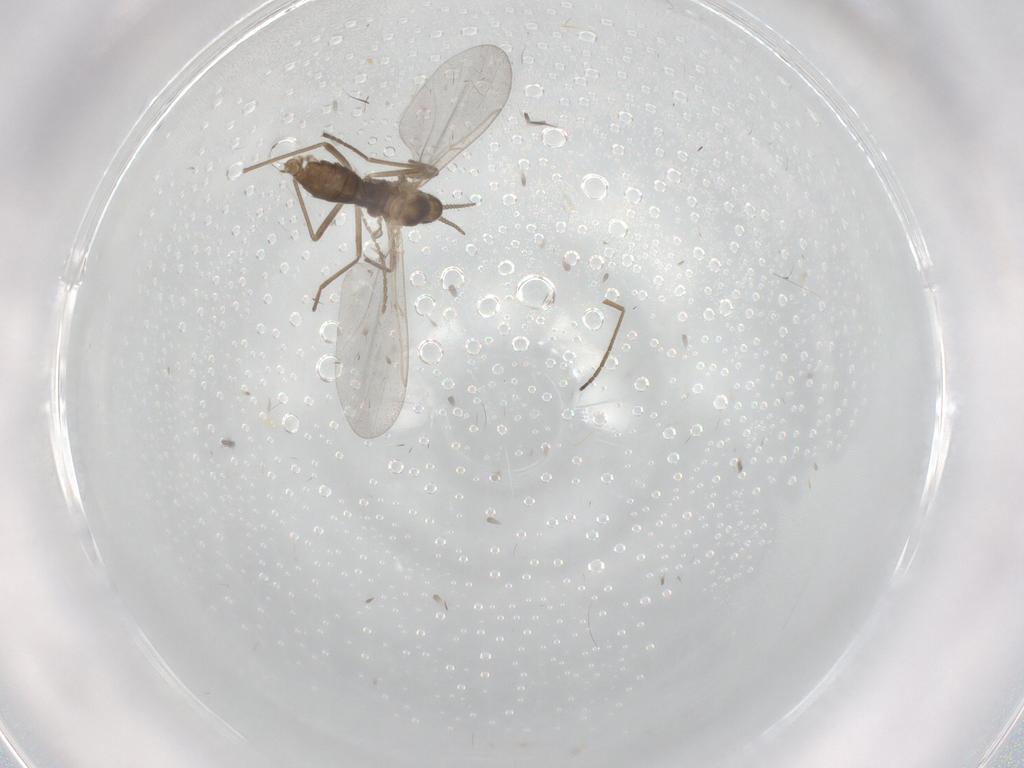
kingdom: Animalia
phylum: Arthropoda
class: Insecta
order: Diptera
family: Cecidomyiidae
